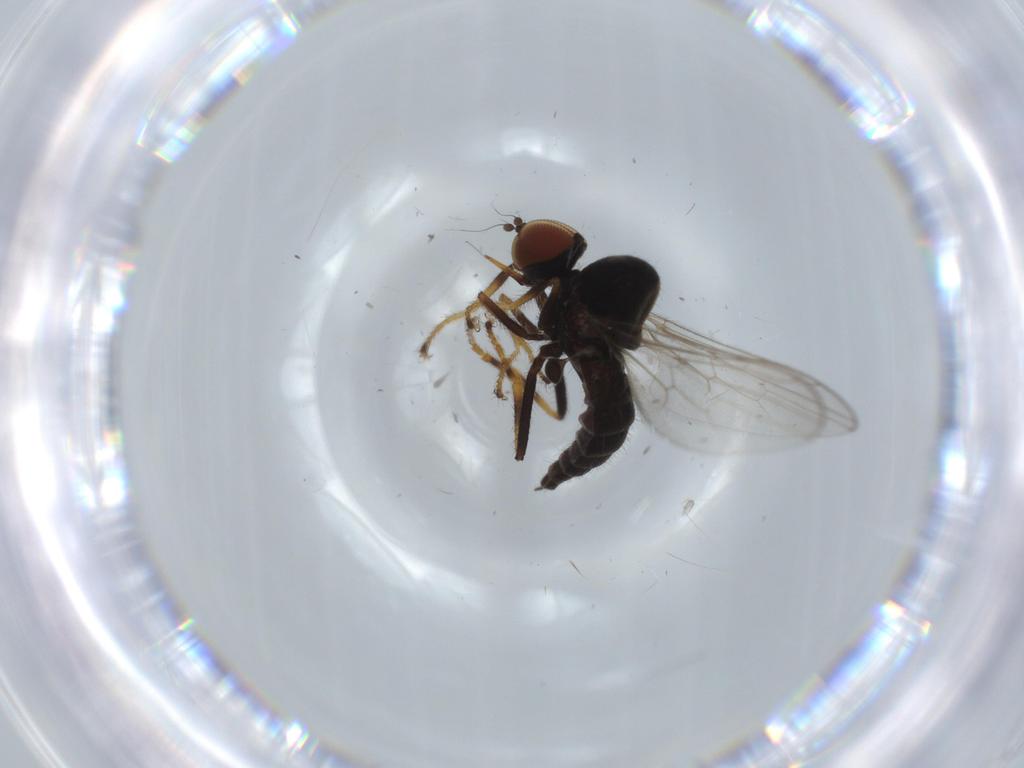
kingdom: Animalia
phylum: Arthropoda
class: Insecta
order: Diptera
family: Hybotidae
